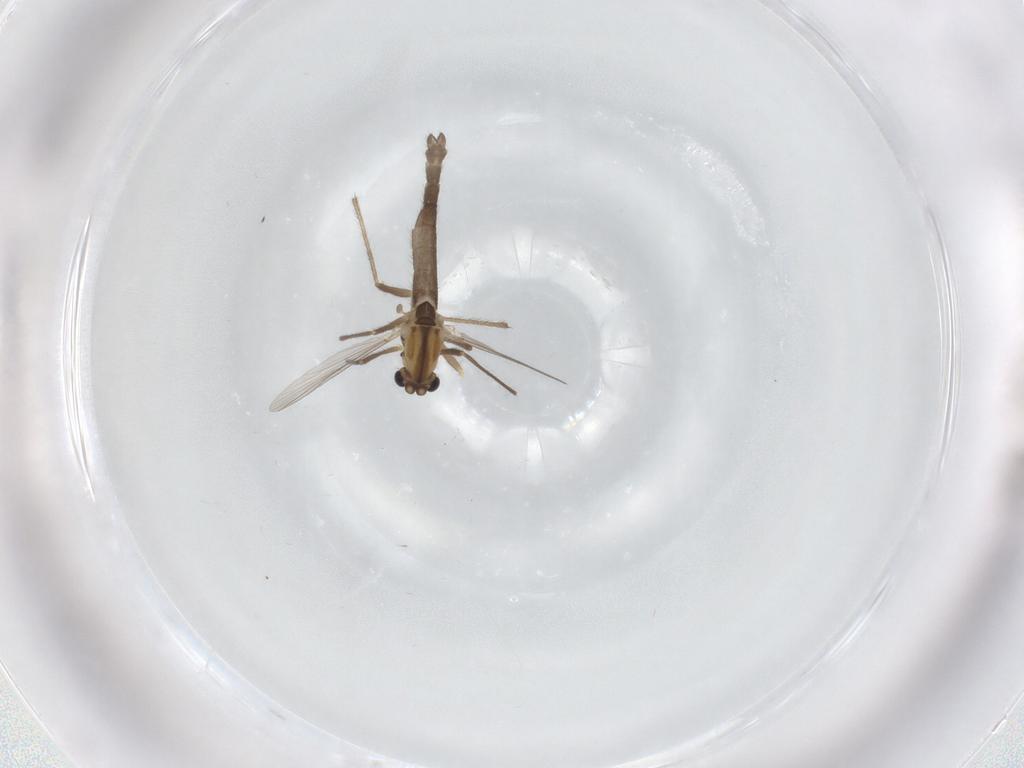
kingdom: Animalia
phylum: Arthropoda
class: Insecta
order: Diptera
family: Chironomidae
